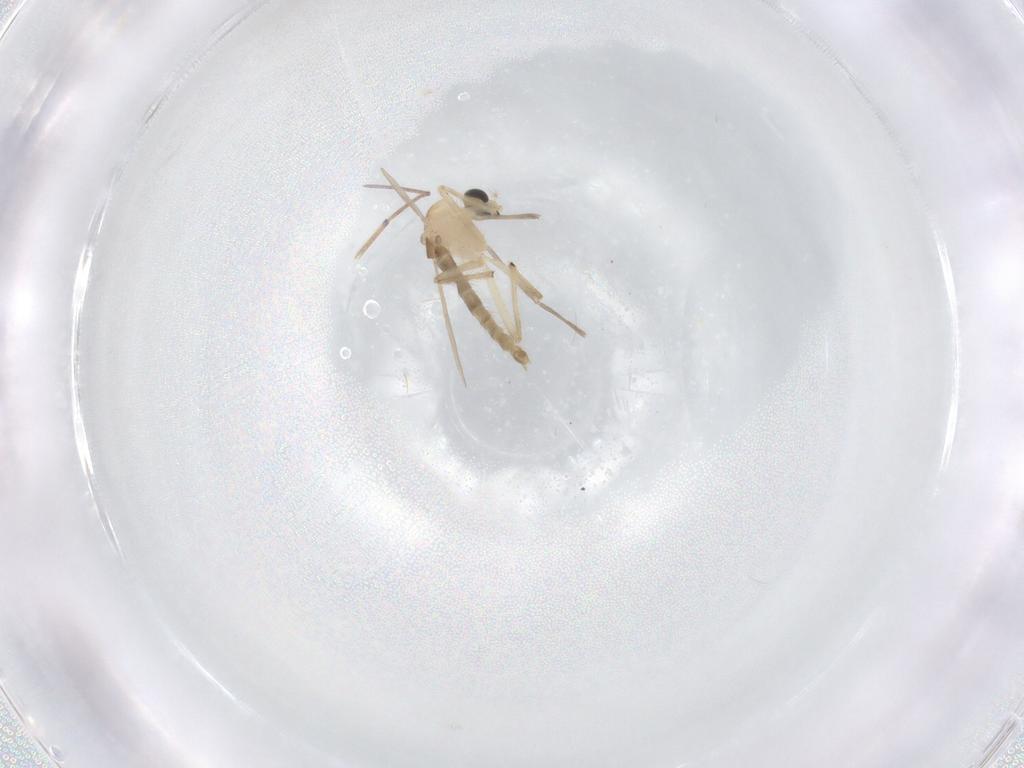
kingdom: Animalia
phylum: Arthropoda
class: Insecta
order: Diptera
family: Chironomidae
